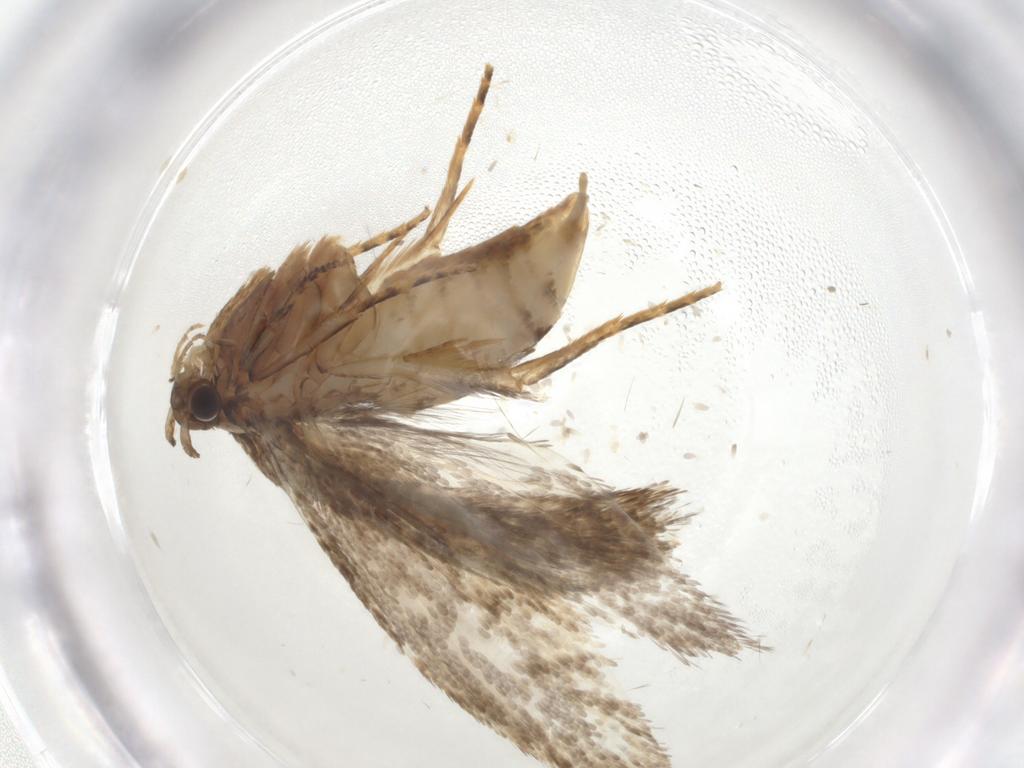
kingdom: Animalia
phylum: Arthropoda
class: Insecta
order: Lepidoptera
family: Crambidae
